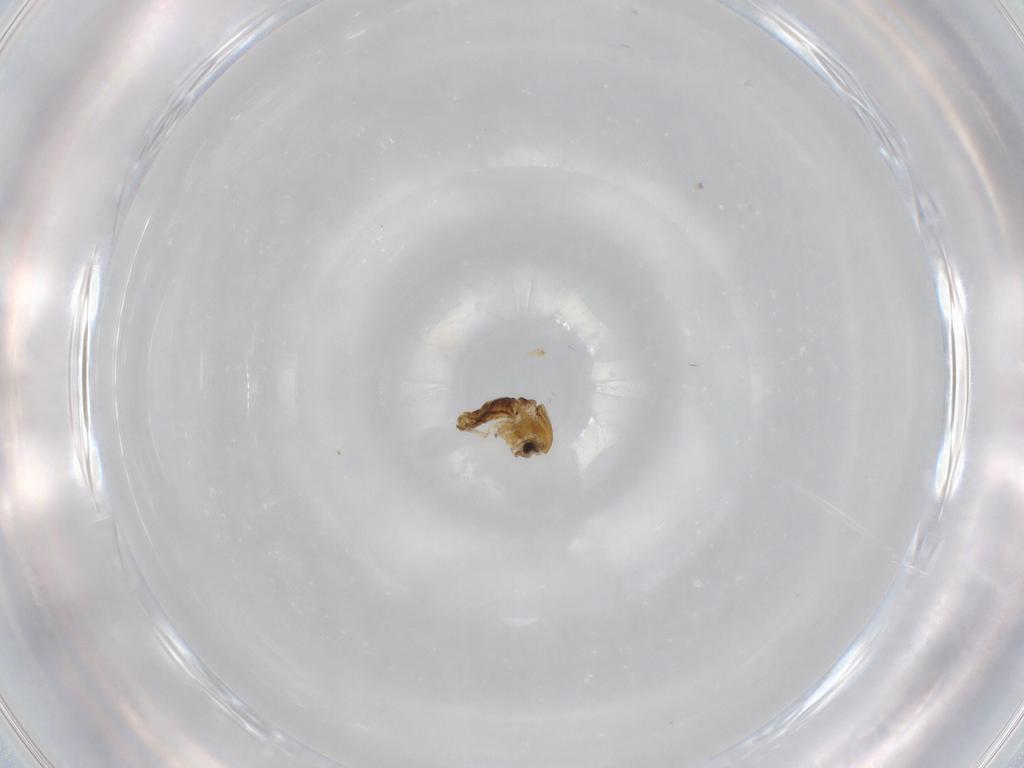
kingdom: Animalia
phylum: Arthropoda
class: Insecta
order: Diptera
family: Chironomidae
